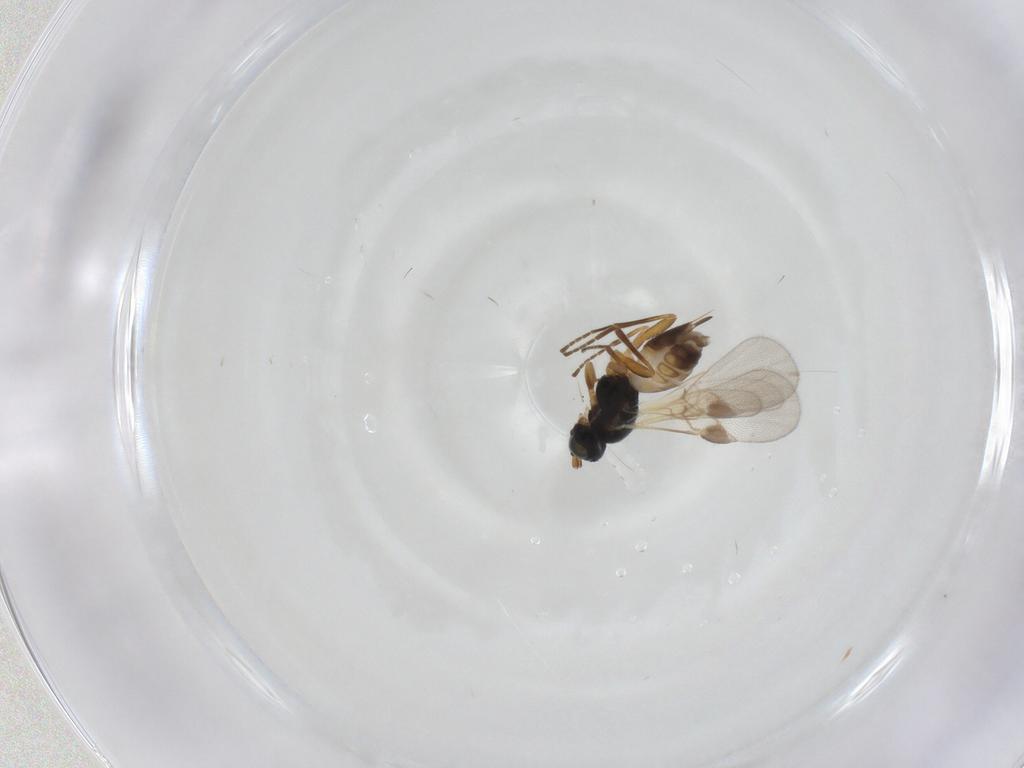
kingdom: Animalia
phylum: Arthropoda
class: Insecta
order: Hymenoptera
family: Braconidae
